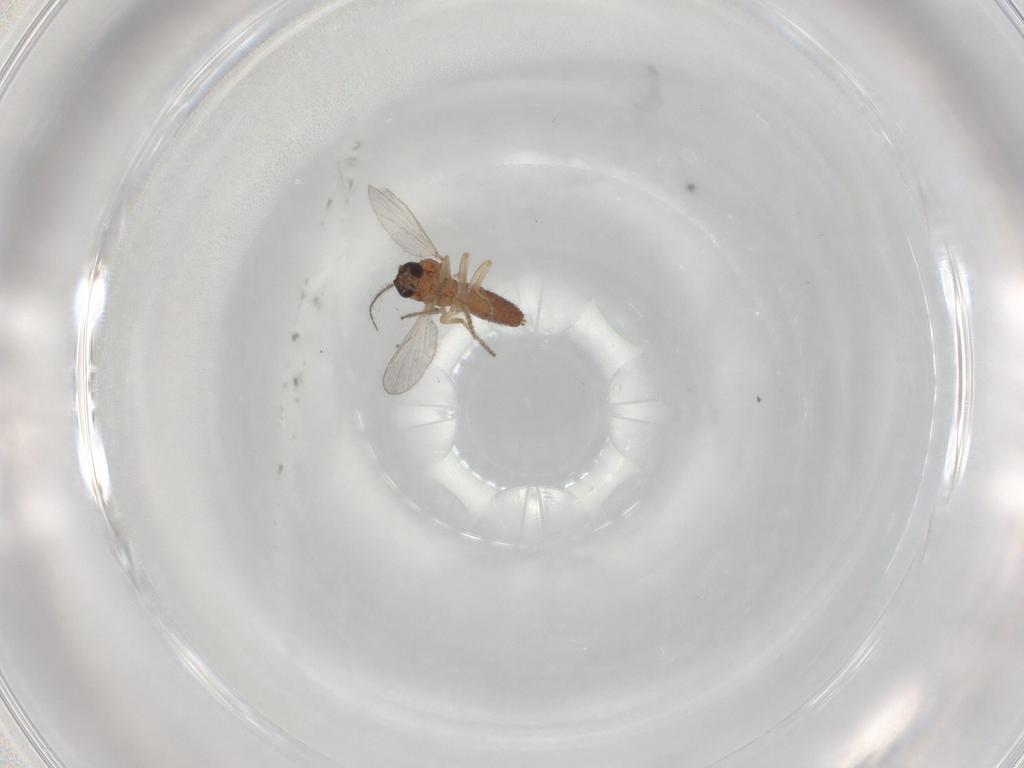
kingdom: Animalia
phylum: Arthropoda
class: Insecta
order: Diptera
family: Ceratopogonidae
